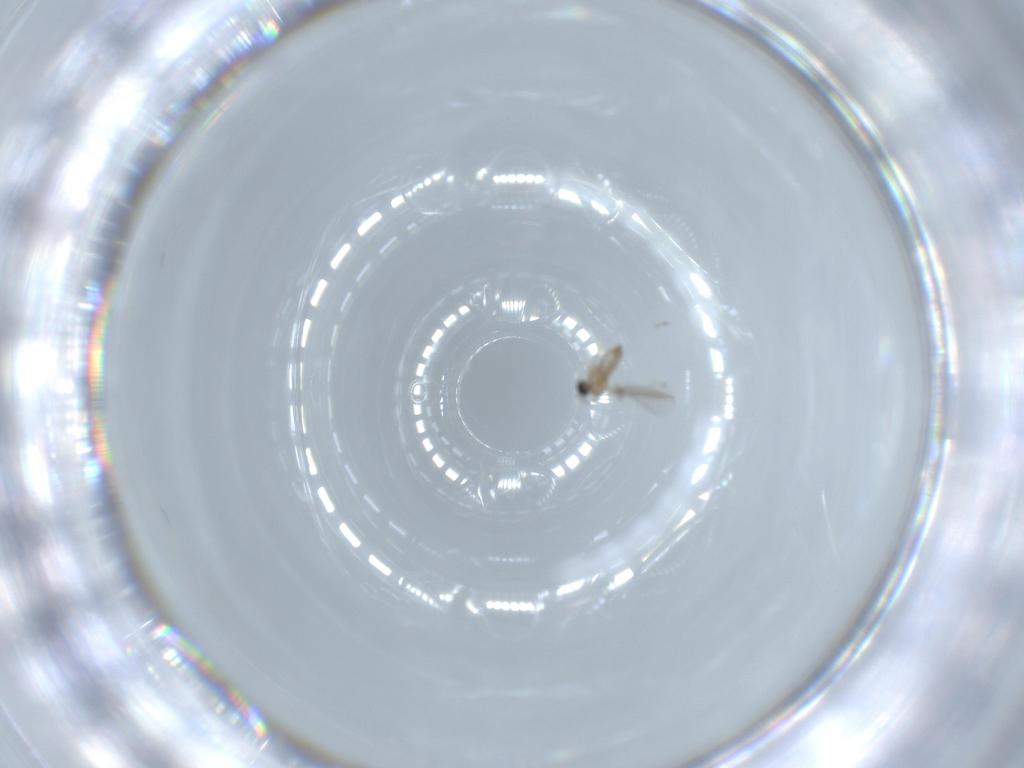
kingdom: Animalia
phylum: Arthropoda
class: Insecta
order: Diptera
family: Cecidomyiidae
